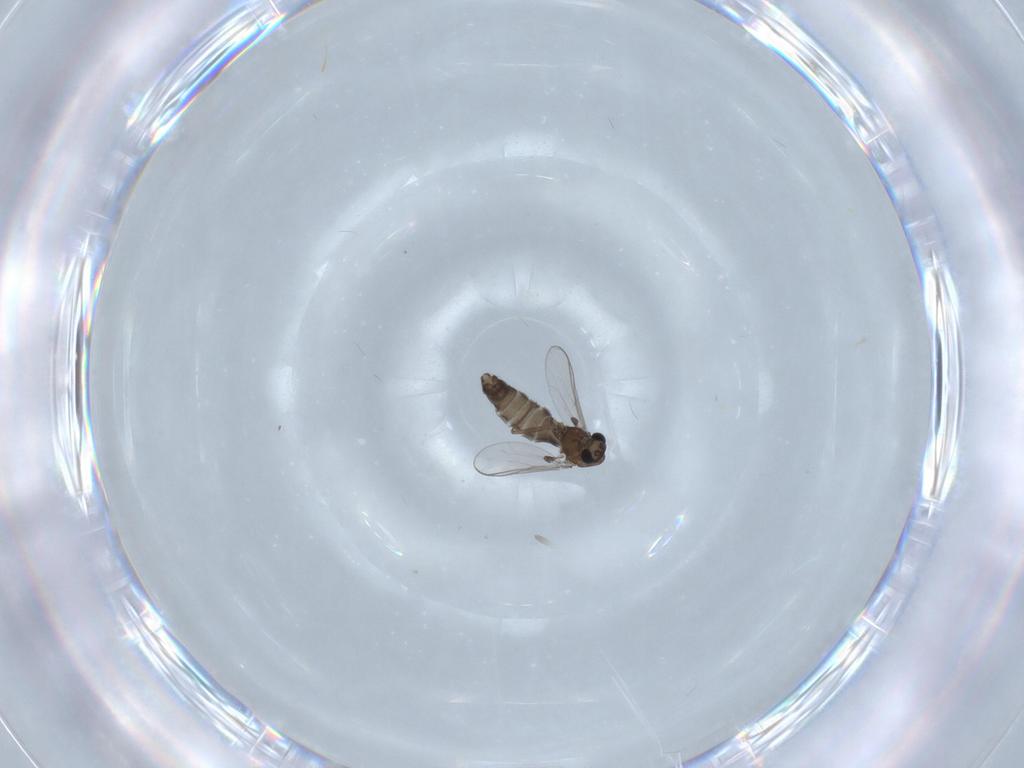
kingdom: Animalia
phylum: Arthropoda
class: Insecta
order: Diptera
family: Chironomidae
